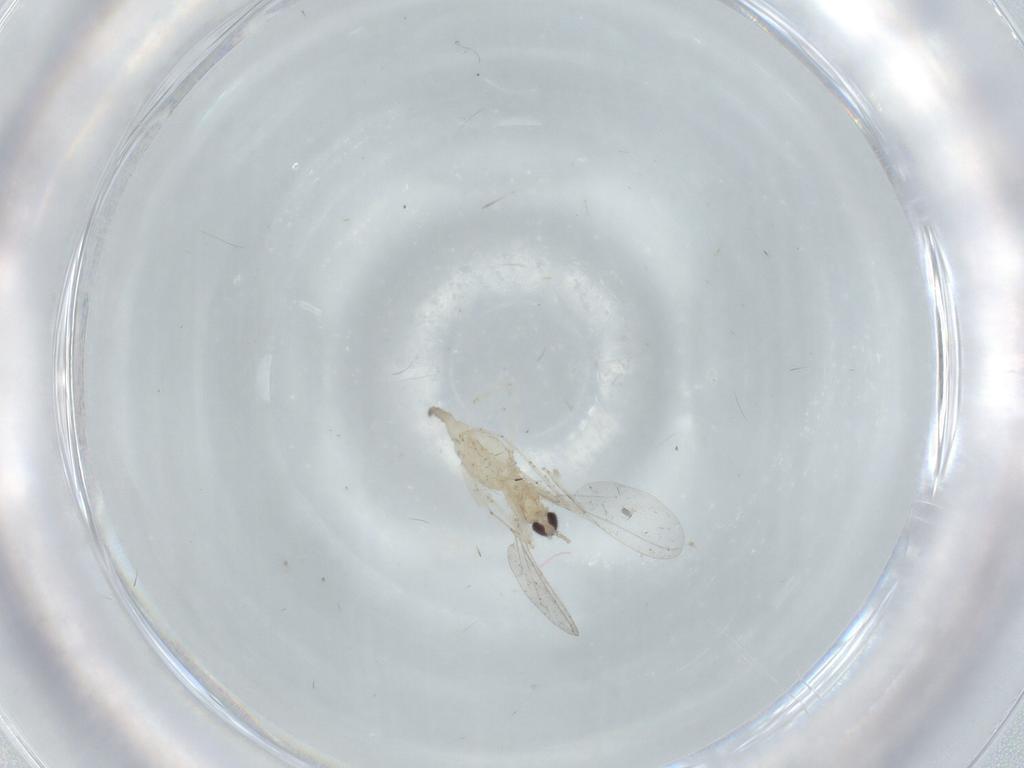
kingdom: Animalia
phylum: Arthropoda
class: Insecta
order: Diptera
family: Cecidomyiidae
